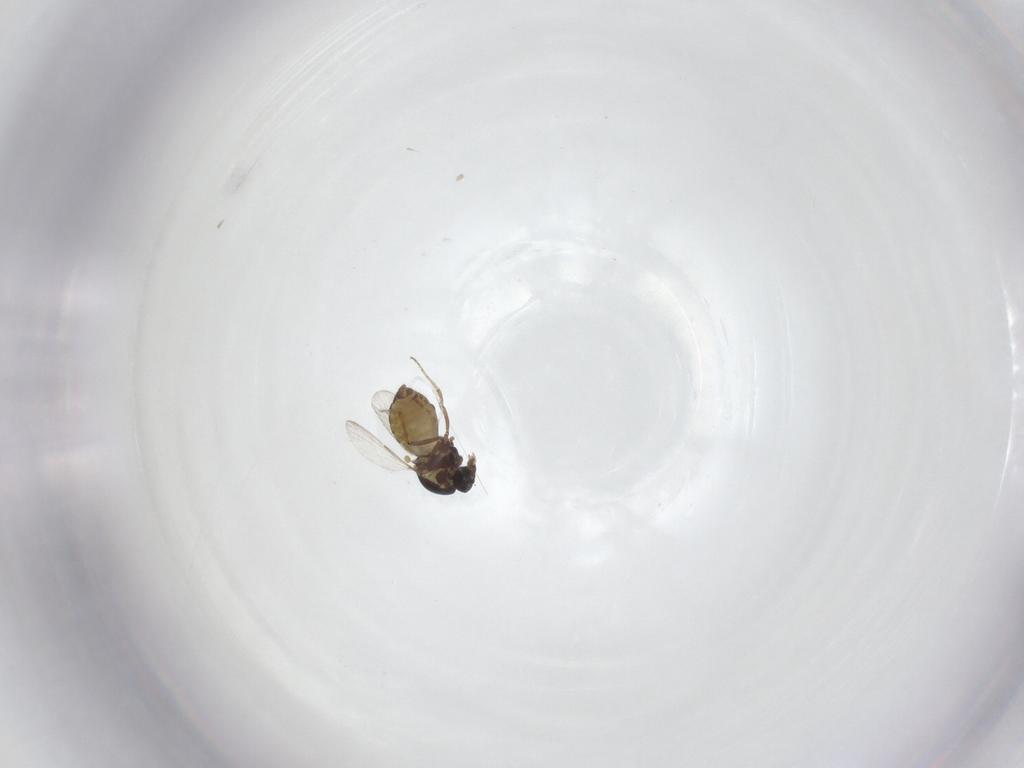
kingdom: Animalia
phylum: Arthropoda
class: Insecta
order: Diptera
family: Ceratopogonidae
